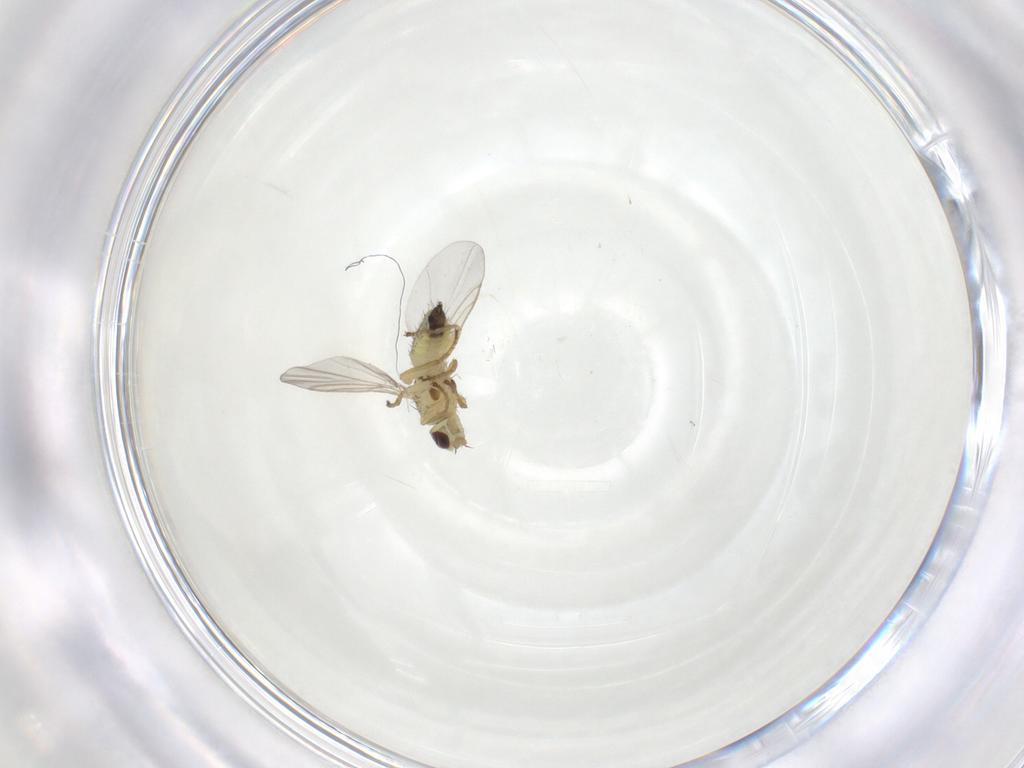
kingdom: Animalia
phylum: Arthropoda
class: Insecta
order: Diptera
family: Agromyzidae
